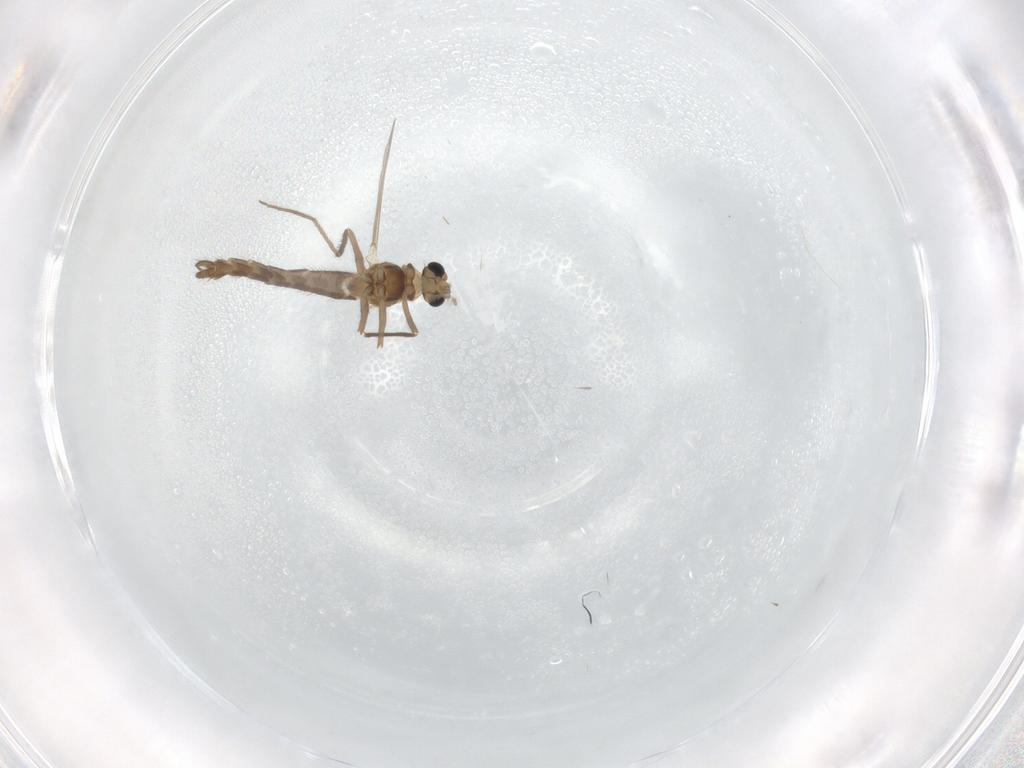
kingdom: Animalia
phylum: Arthropoda
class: Insecta
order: Diptera
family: Chironomidae
